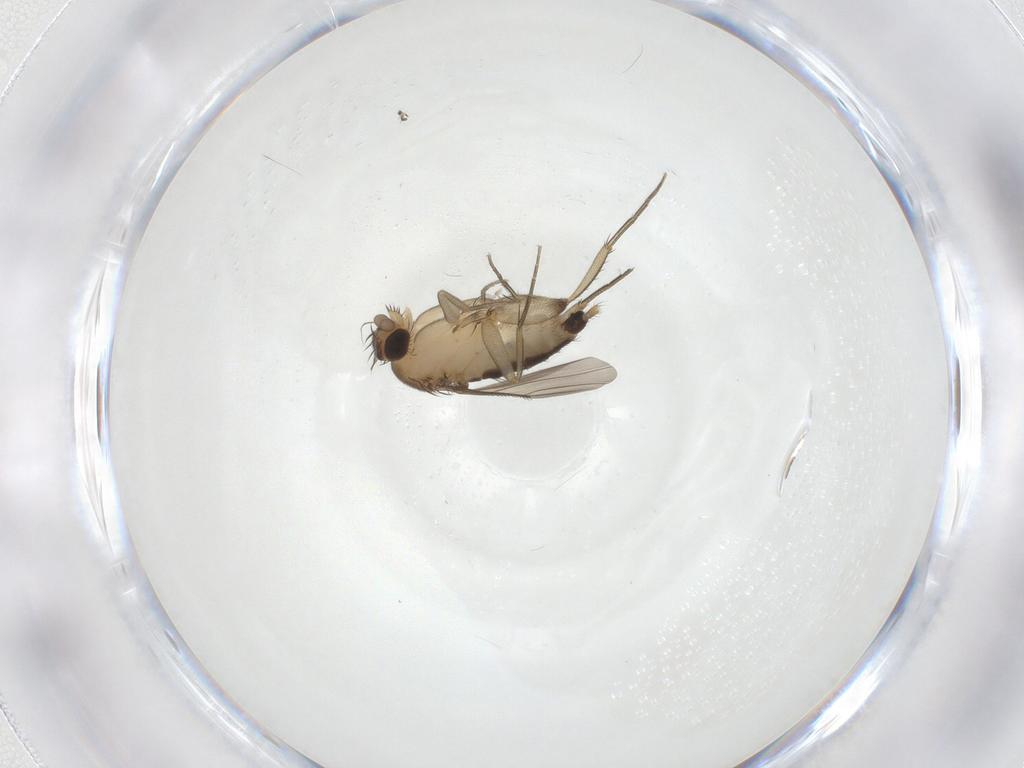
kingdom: Animalia
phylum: Arthropoda
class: Insecta
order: Diptera
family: Phoridae
